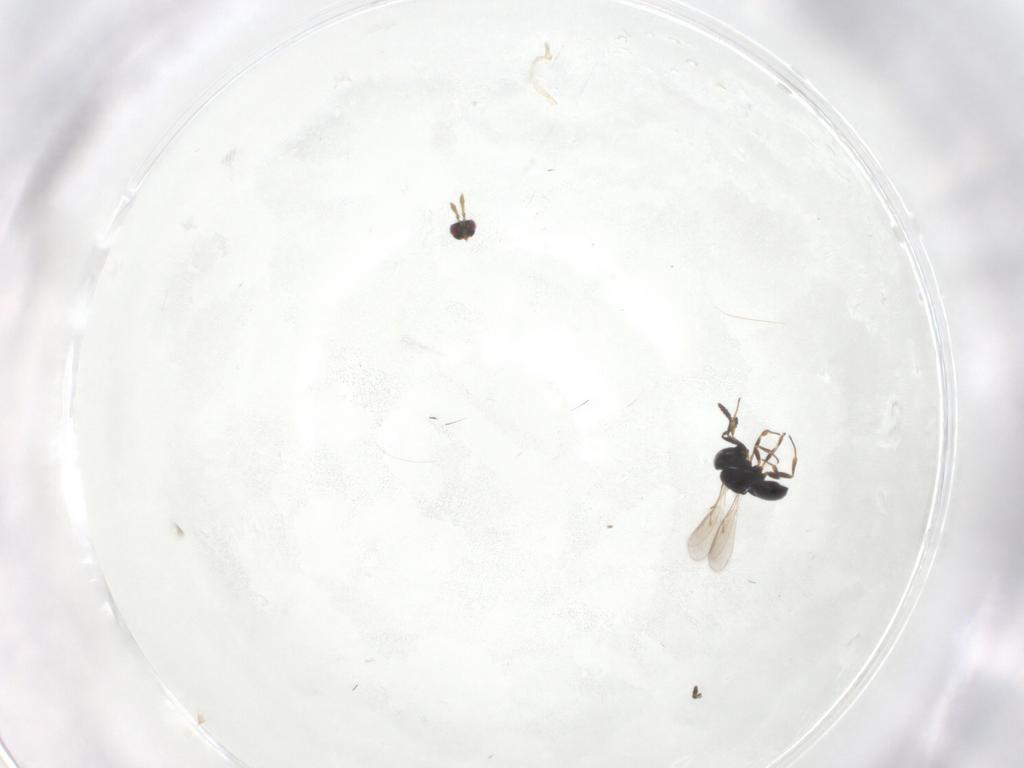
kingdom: Animalia
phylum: Arthropoda
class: Insecta
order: Hymenoptera
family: Scelionidae
